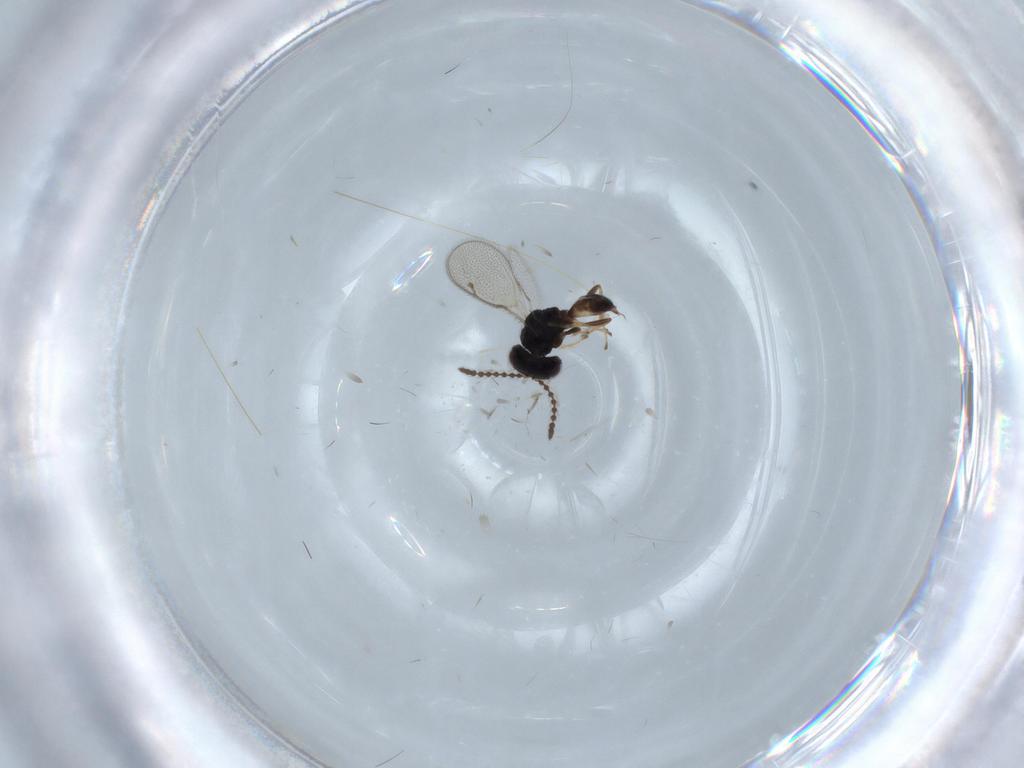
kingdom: Animalia
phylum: Arthropoda
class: Insecta
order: Hymenoptera
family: Pteromalidae
